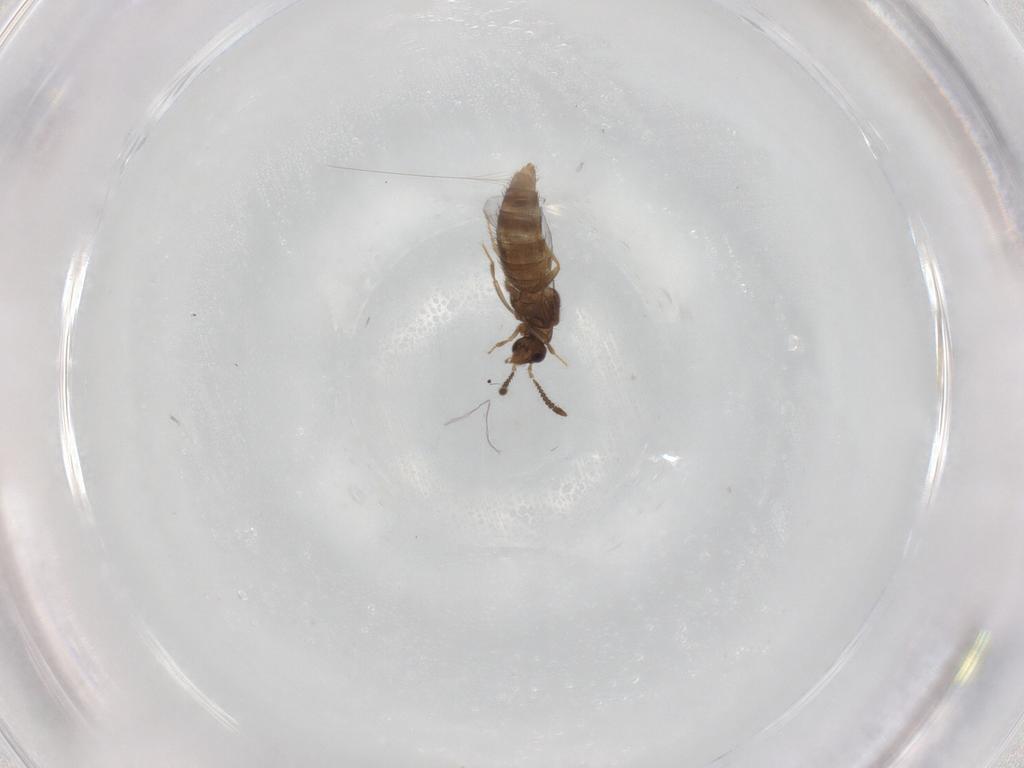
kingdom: Animalia
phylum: Arthropoda
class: Insecta
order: Coleoptera
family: Staphylinidae
